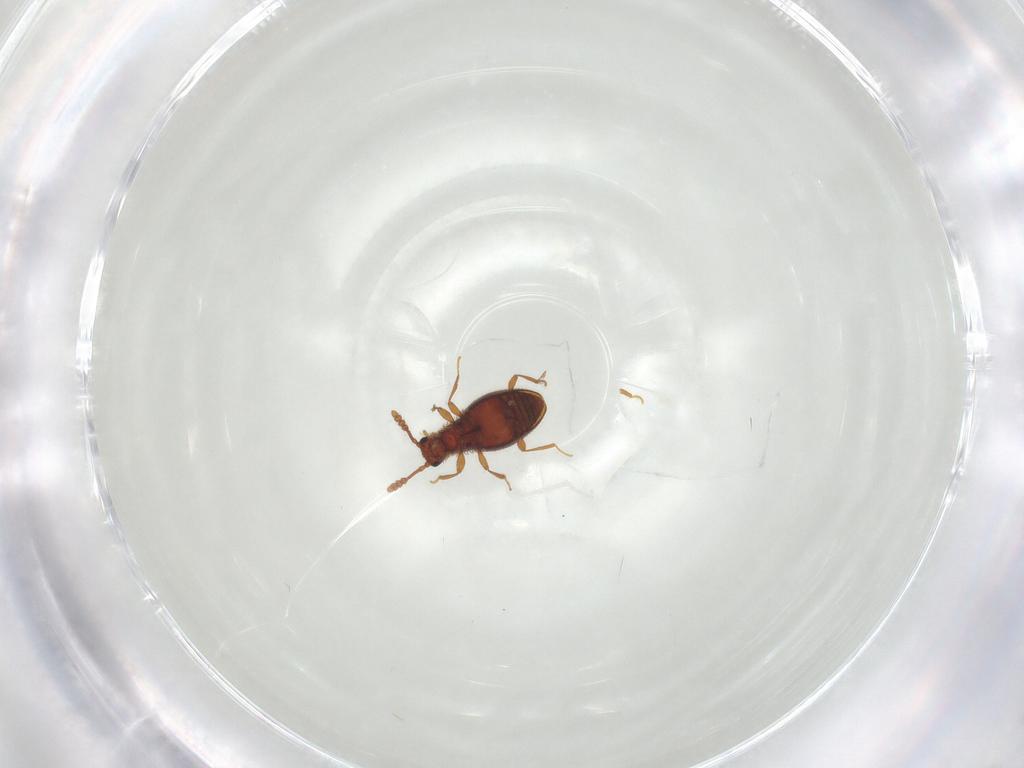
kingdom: Animalia
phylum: Arthropoda
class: Insecta
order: Coleoptera
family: Staphylinidae
